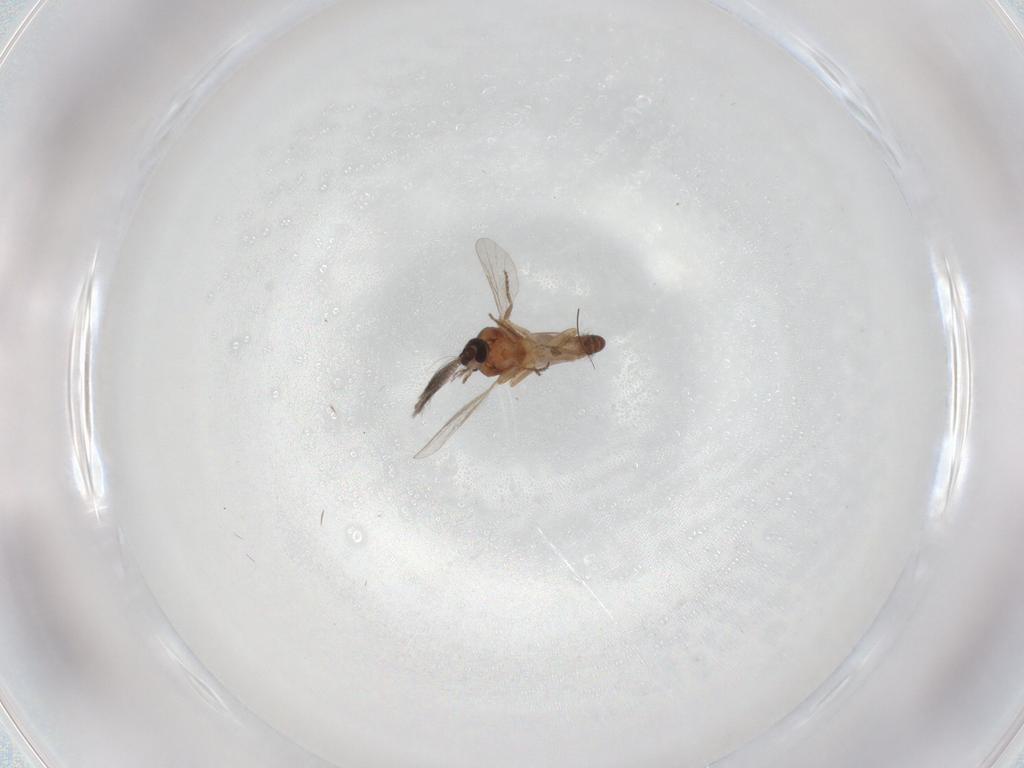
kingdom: Animalia
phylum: Arthropoda
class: Insecta
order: Diptera
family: Ceratopogonidae
